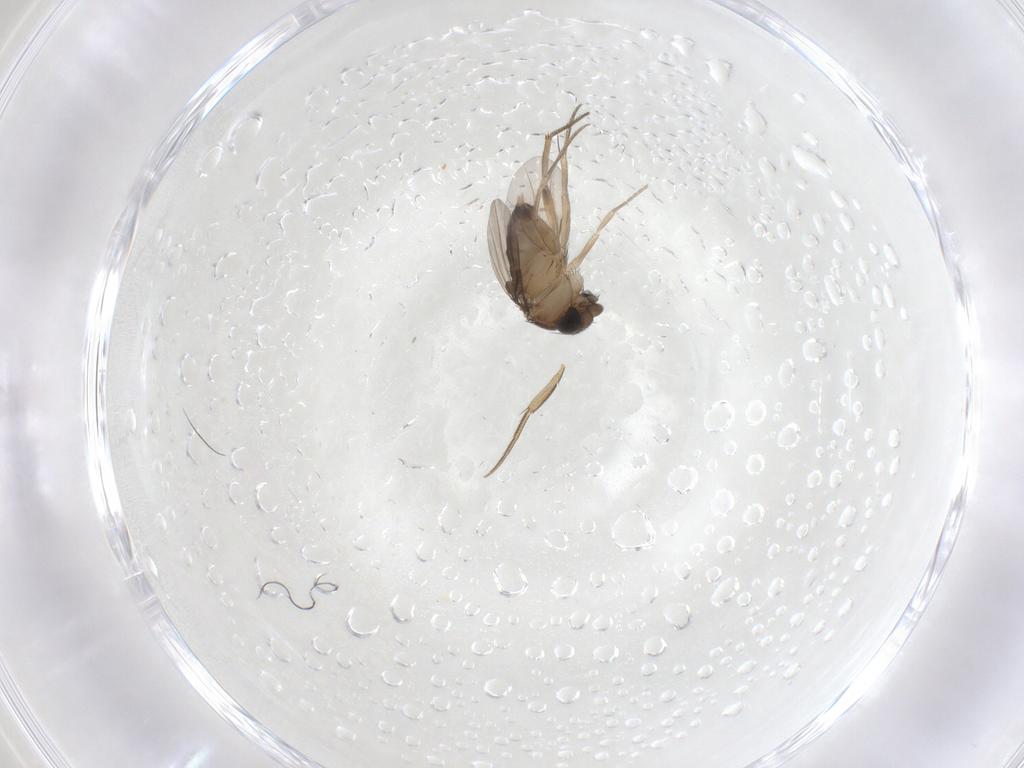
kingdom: Animalia
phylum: Arthropoda
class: Insecta
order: Diptera
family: Phoridae
